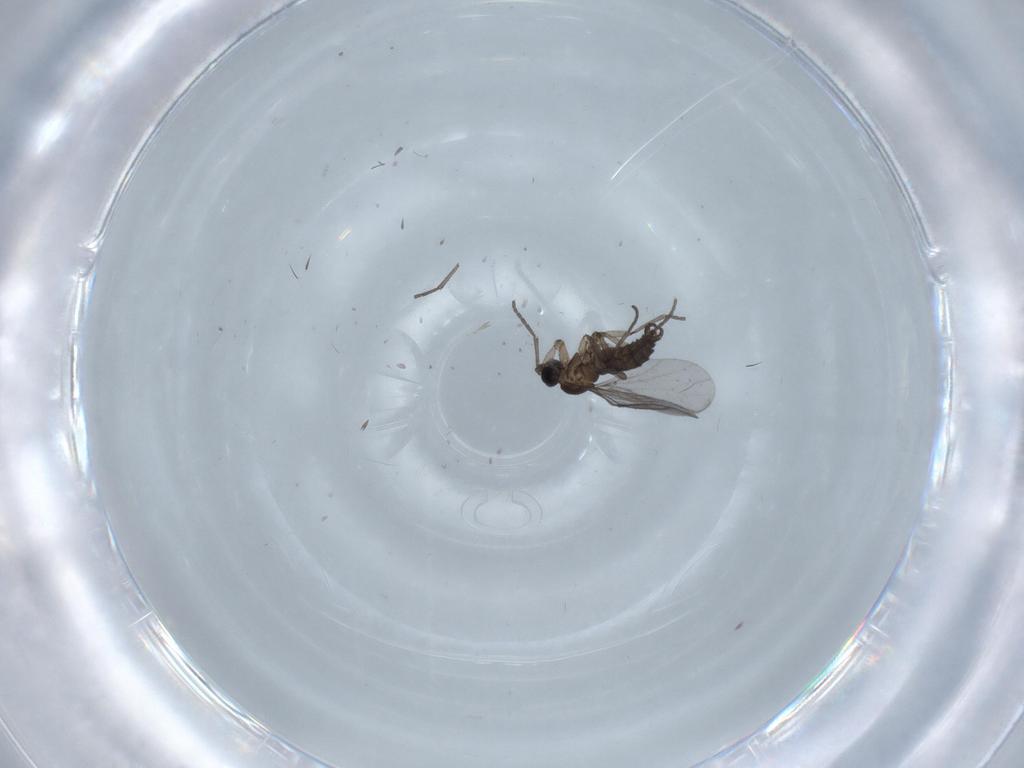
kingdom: Animalia
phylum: Arthropoda
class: Insecta
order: Diptera
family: Ceratopogonidae
